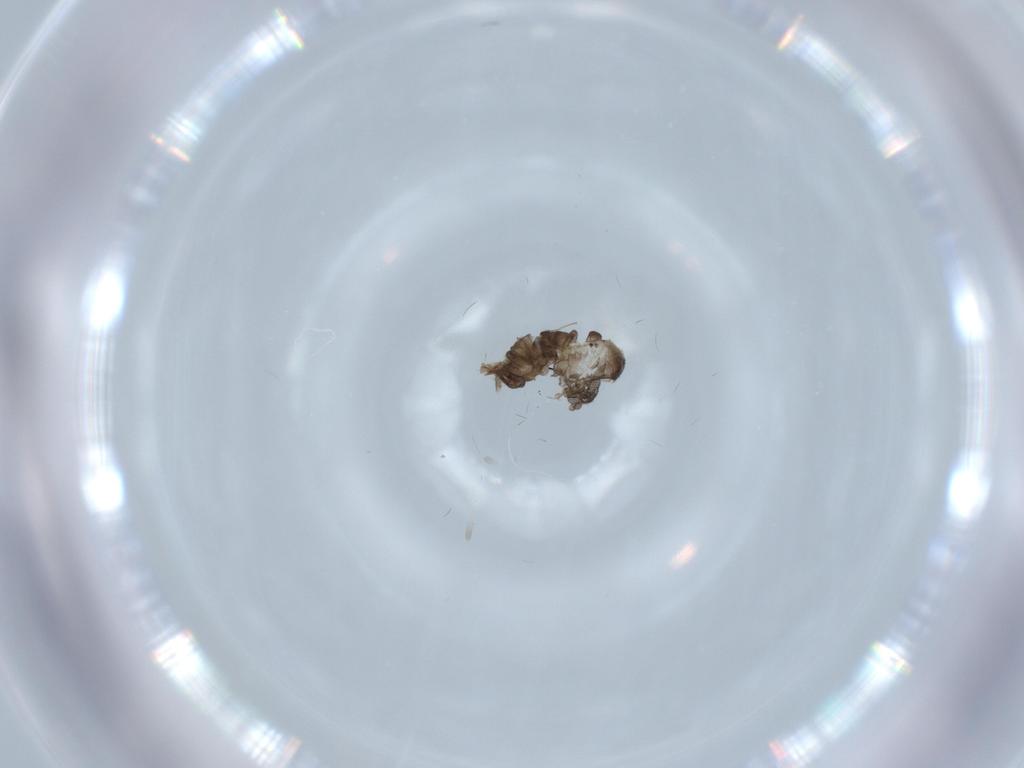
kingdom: Animalia
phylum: Arthropoda
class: Insecta
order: Diptera
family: Psychodidae
